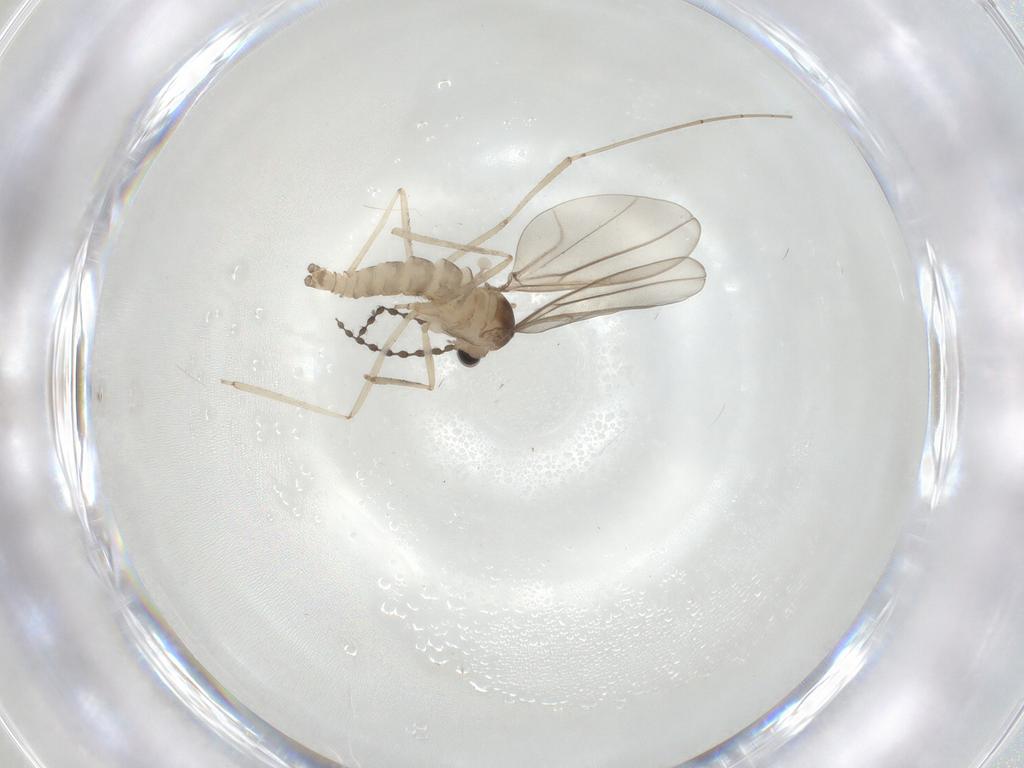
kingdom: Animalia
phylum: Arthropoda
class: Insecta
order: Diptera
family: Cecidomyiidae
